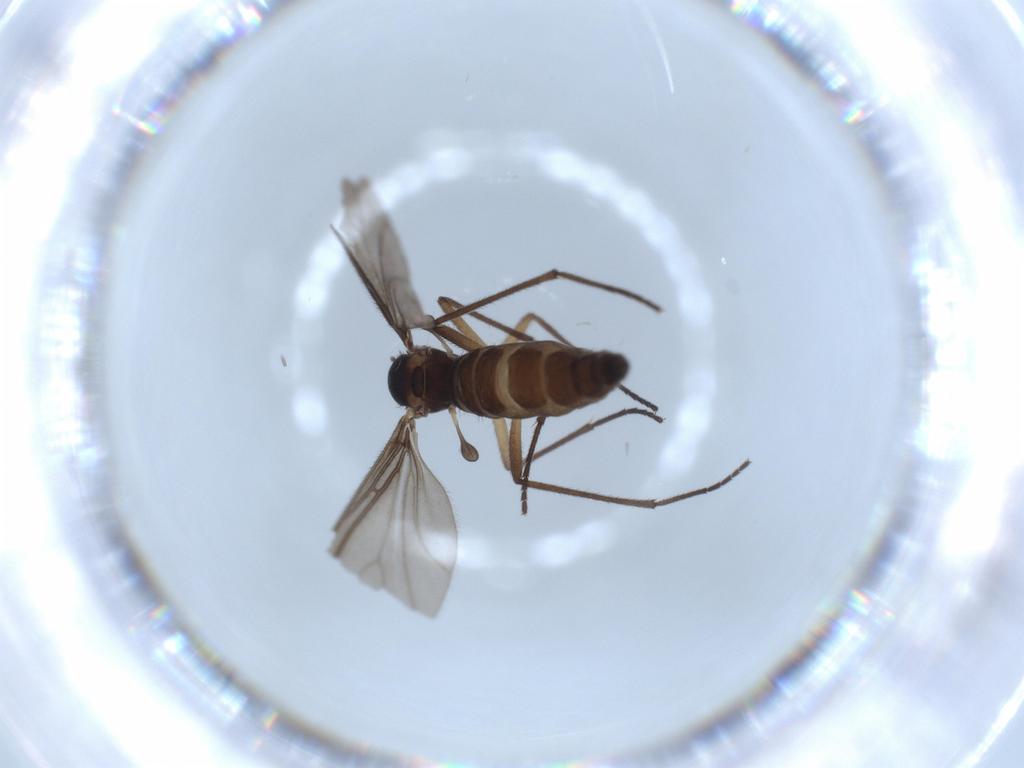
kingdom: Animalia
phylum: Arthropoda
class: Insecta
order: Diptera
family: Sciaridae
